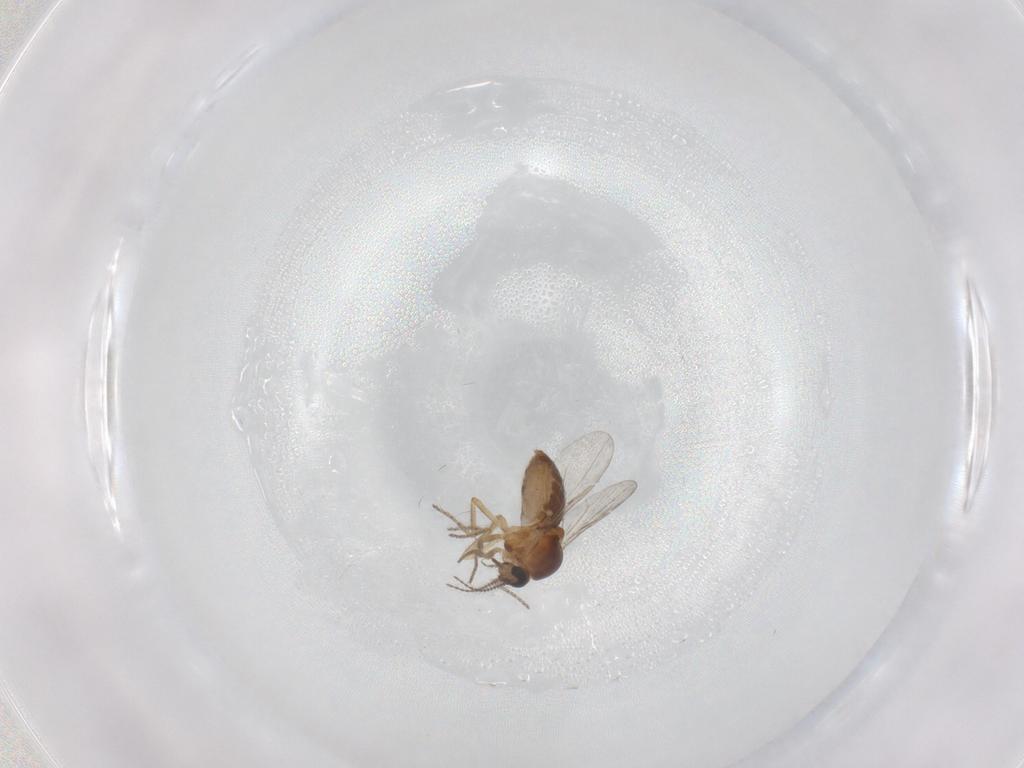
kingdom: Animalia
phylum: Arthropoda
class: Insecta
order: Diptera
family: Ceratopogonidae
